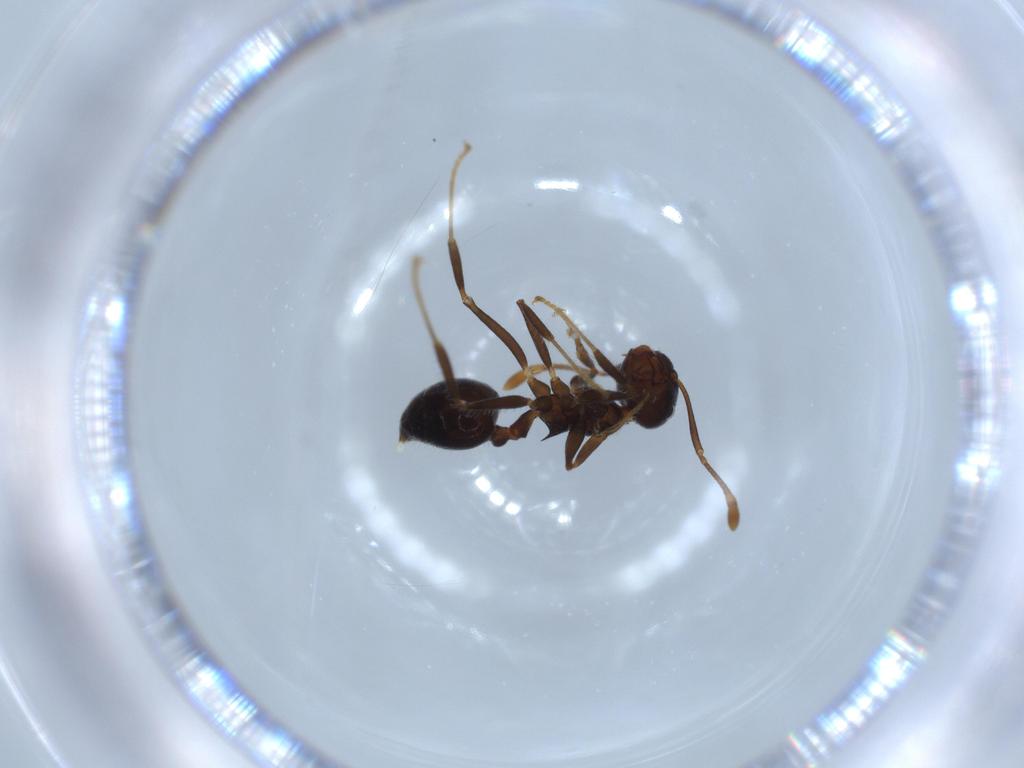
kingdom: Animalia
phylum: Arthropoda
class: Insecta
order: Hymenoptera
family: Formicidae
